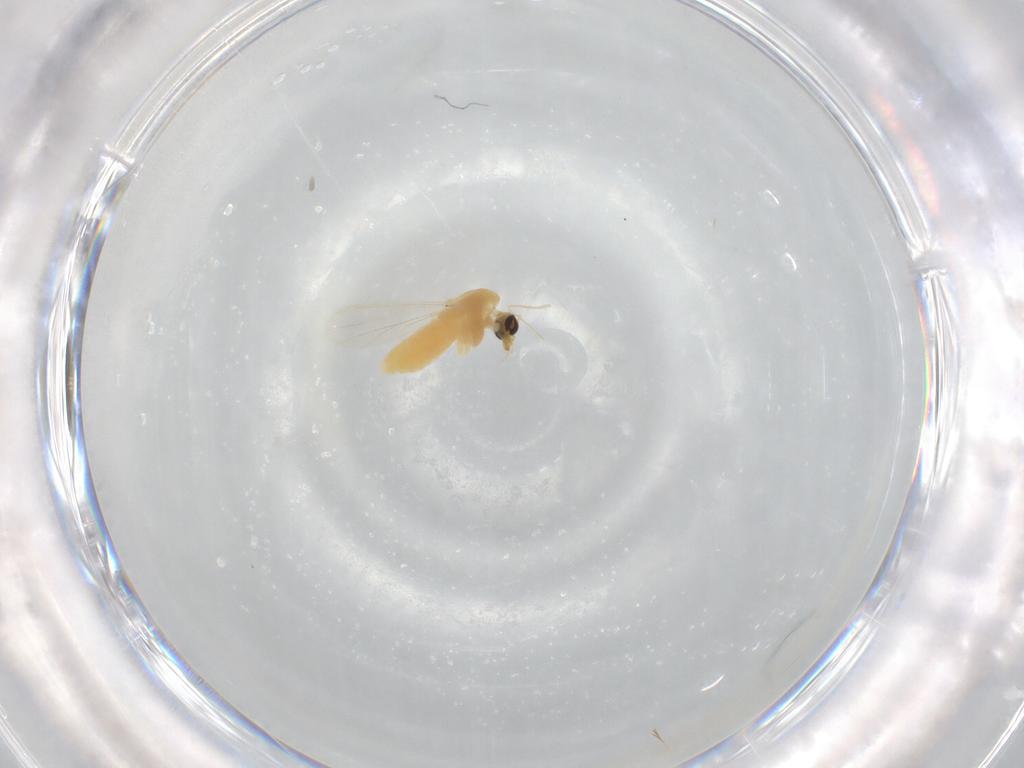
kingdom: Animalia
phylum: Arthropoda
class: Insecta
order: Diptera
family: Chironomidae
